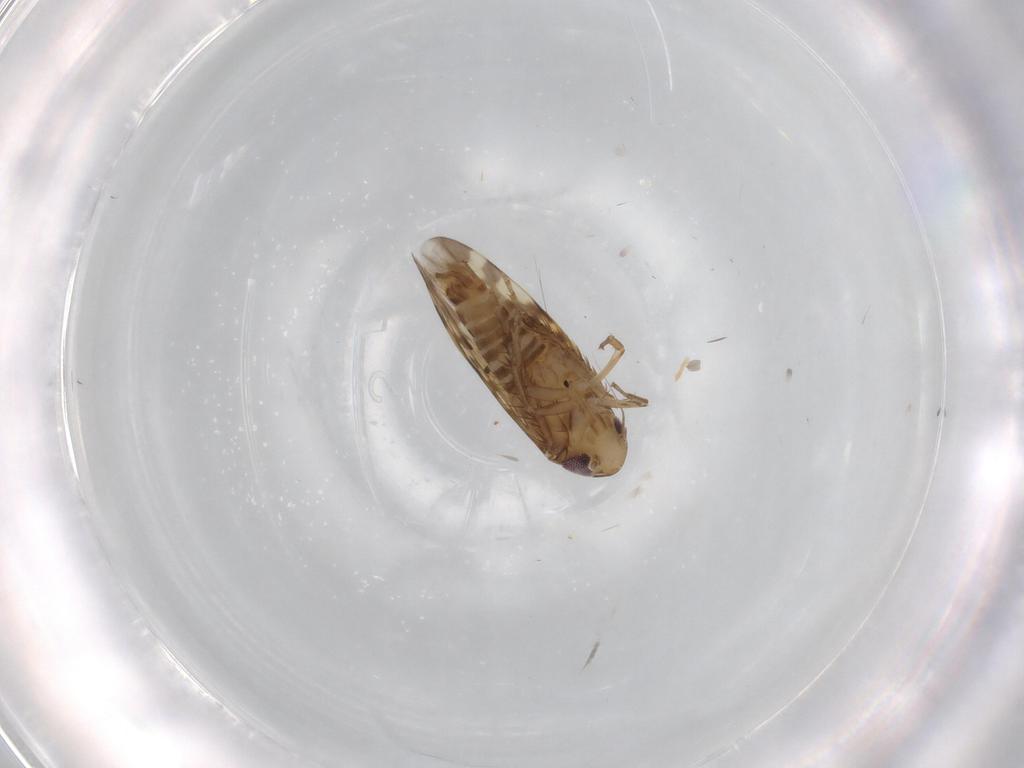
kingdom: Animalia
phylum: Arthropoda
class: Insecta
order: Hemiptera
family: Cicadellidae
